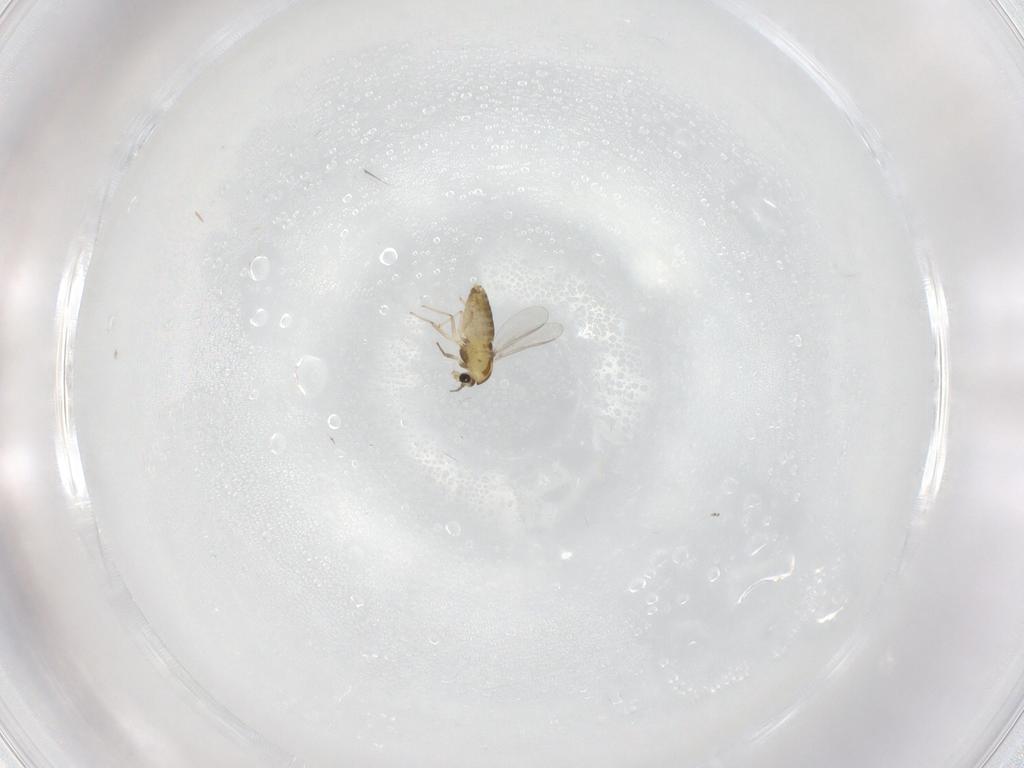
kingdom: Animalia
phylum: Arthropoda
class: Insecta
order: Diptera
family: Chironomidae
